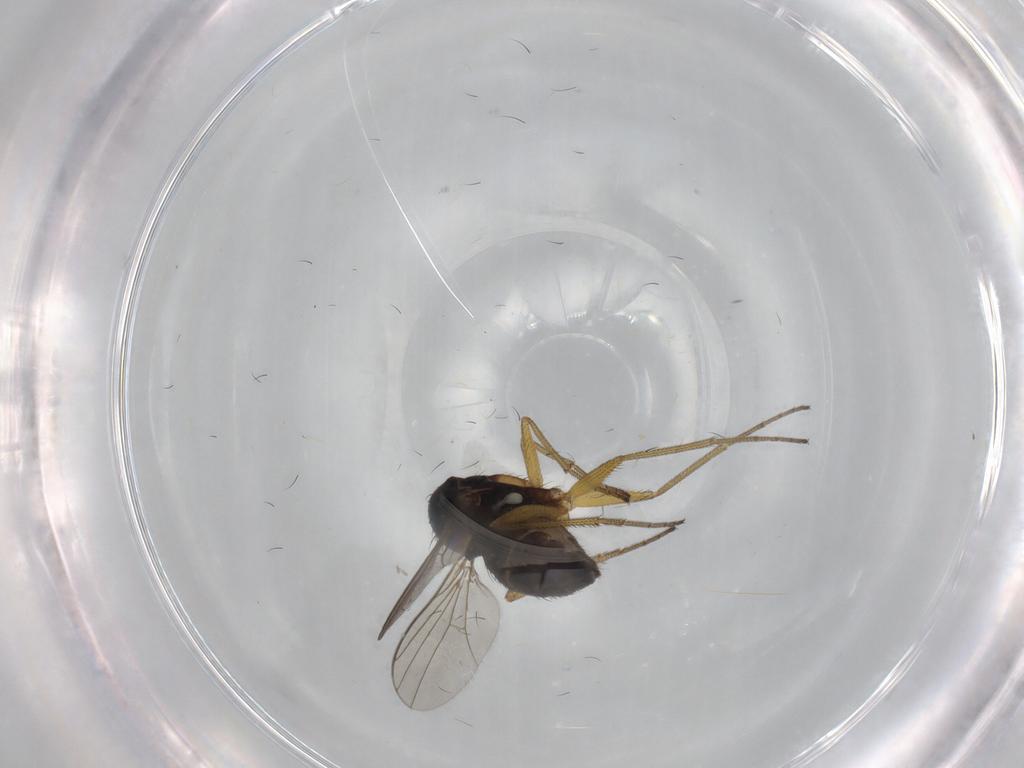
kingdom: Animalia
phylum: Arthropoda
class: Insecta
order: Diptera
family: Dolichopodidae
